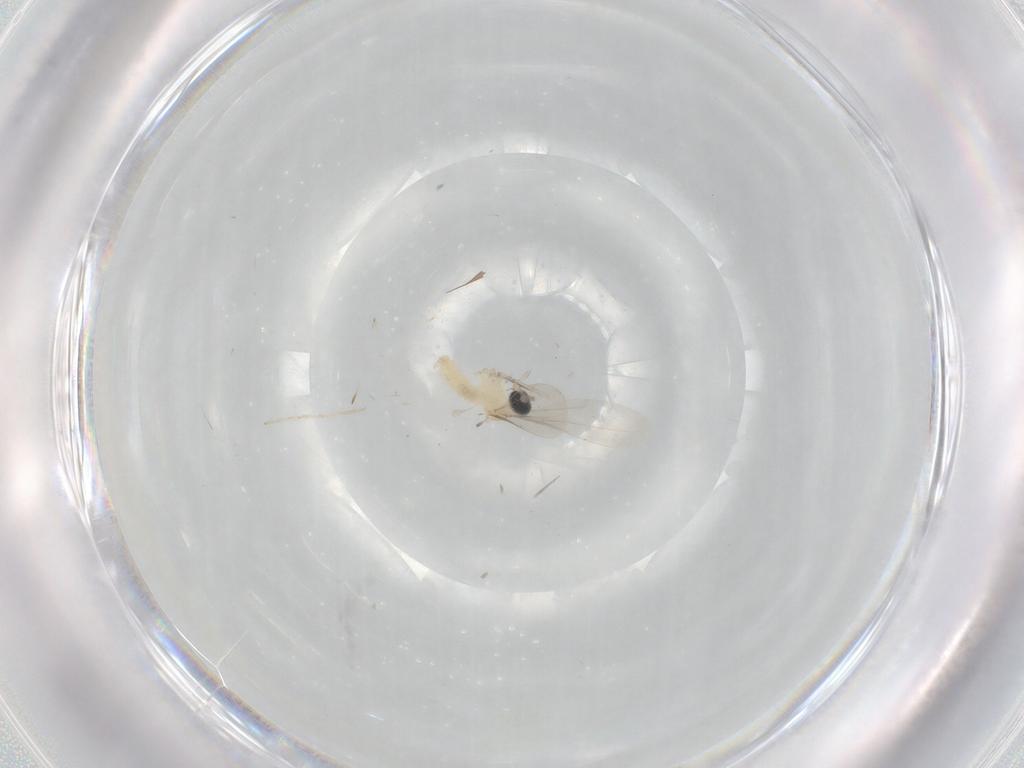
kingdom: Animalia
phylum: Arthropoda
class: Insecta
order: Diptera
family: Cecidomyiidae
